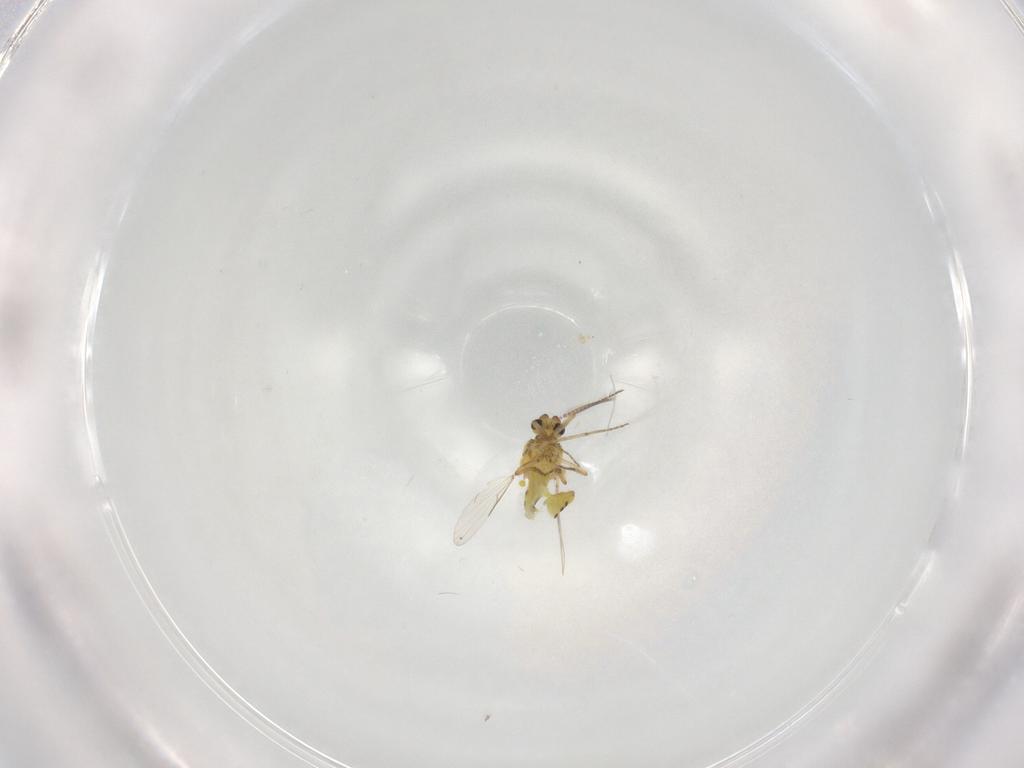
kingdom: Animalia
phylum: Arthropoda
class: Insecta
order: Diptera
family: Ceratopogonidae
